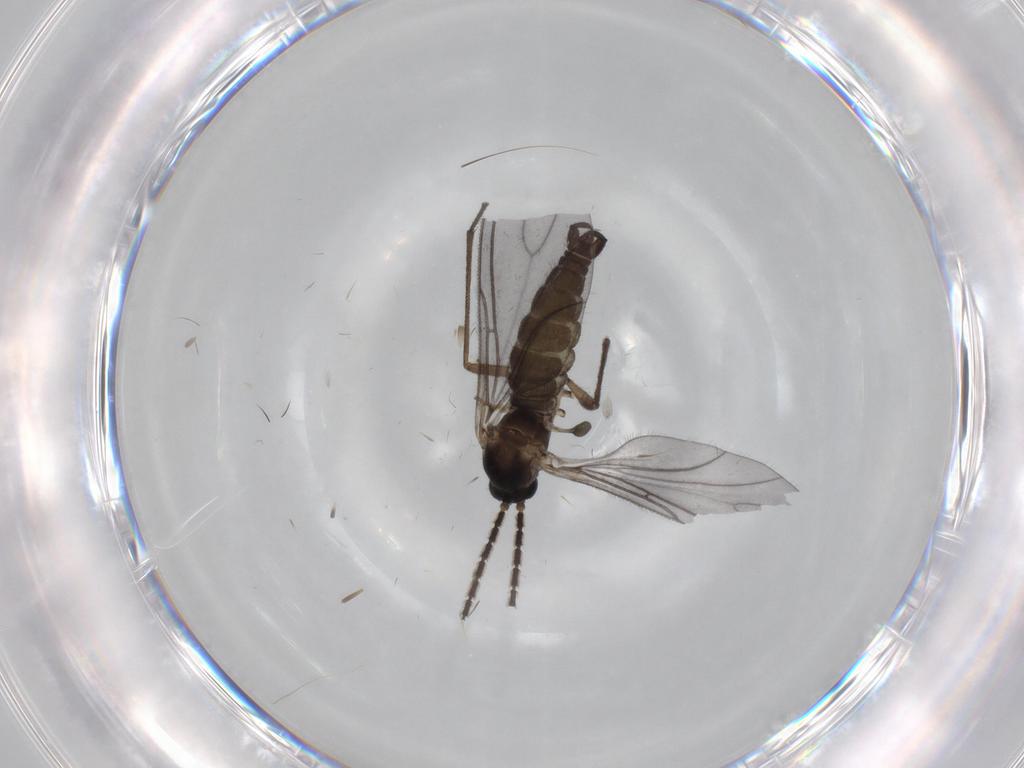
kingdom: Animalia
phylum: Arthropoda
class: Insecta
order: Diptera
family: Sciaridae
